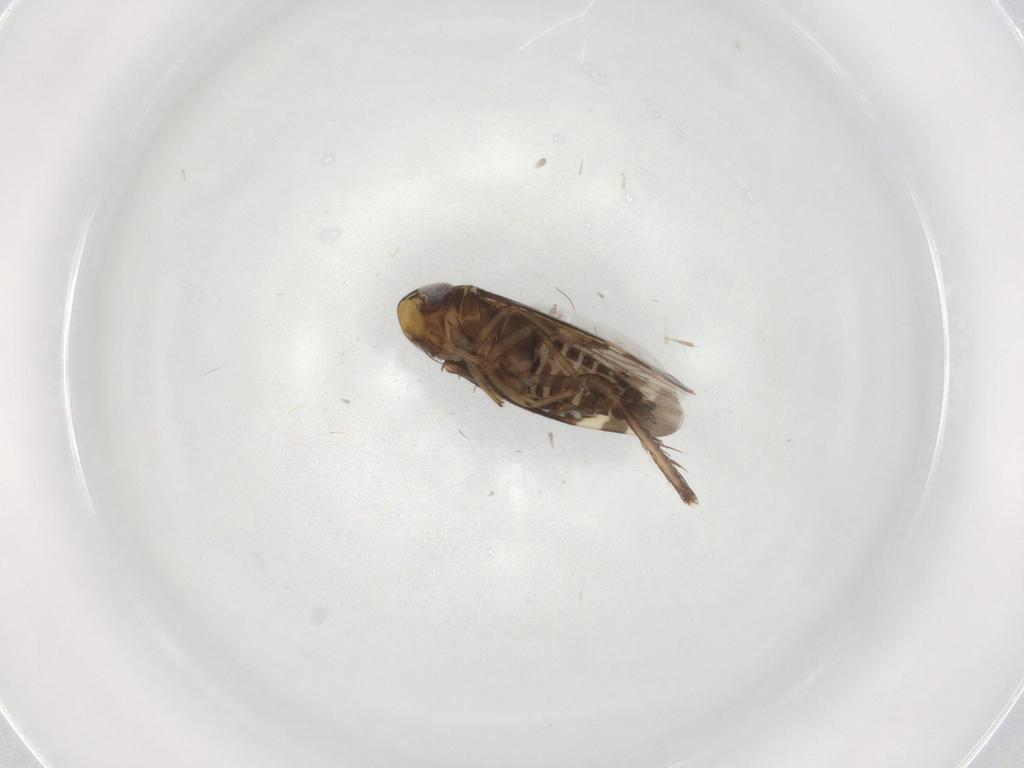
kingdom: Animalia
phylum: Arthropoda
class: Insecta
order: Hemiptera
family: Cicadellidae
